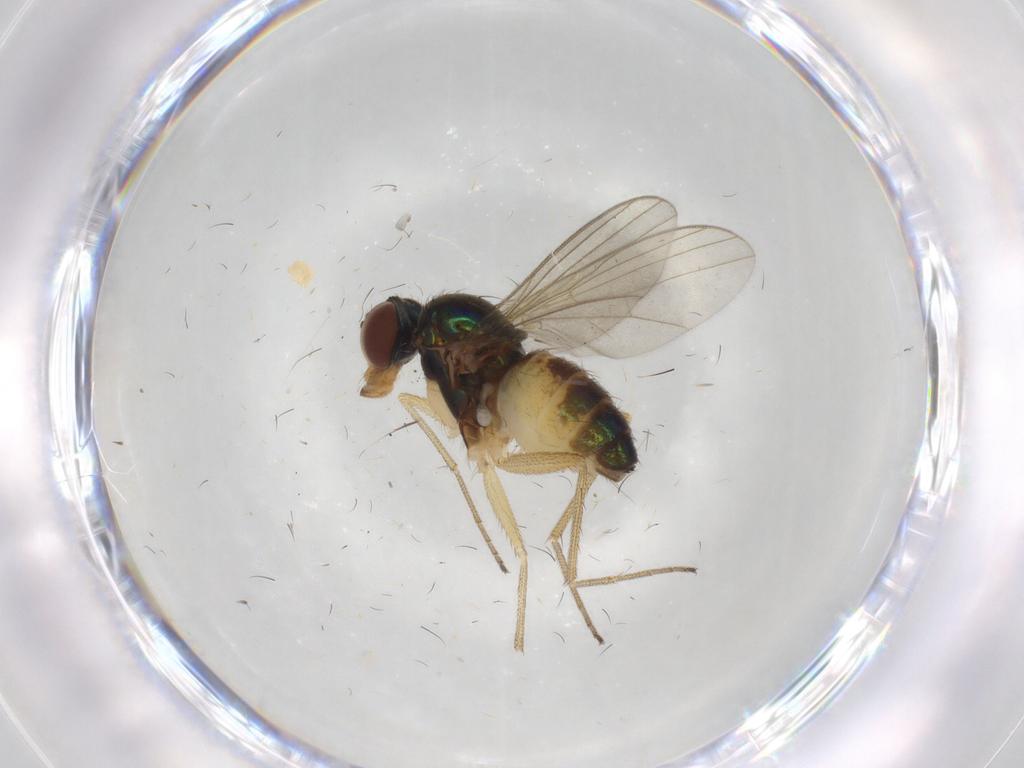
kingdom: Animalia
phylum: Arthropoda
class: Insecta
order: Diptera
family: Dolichopodidae
